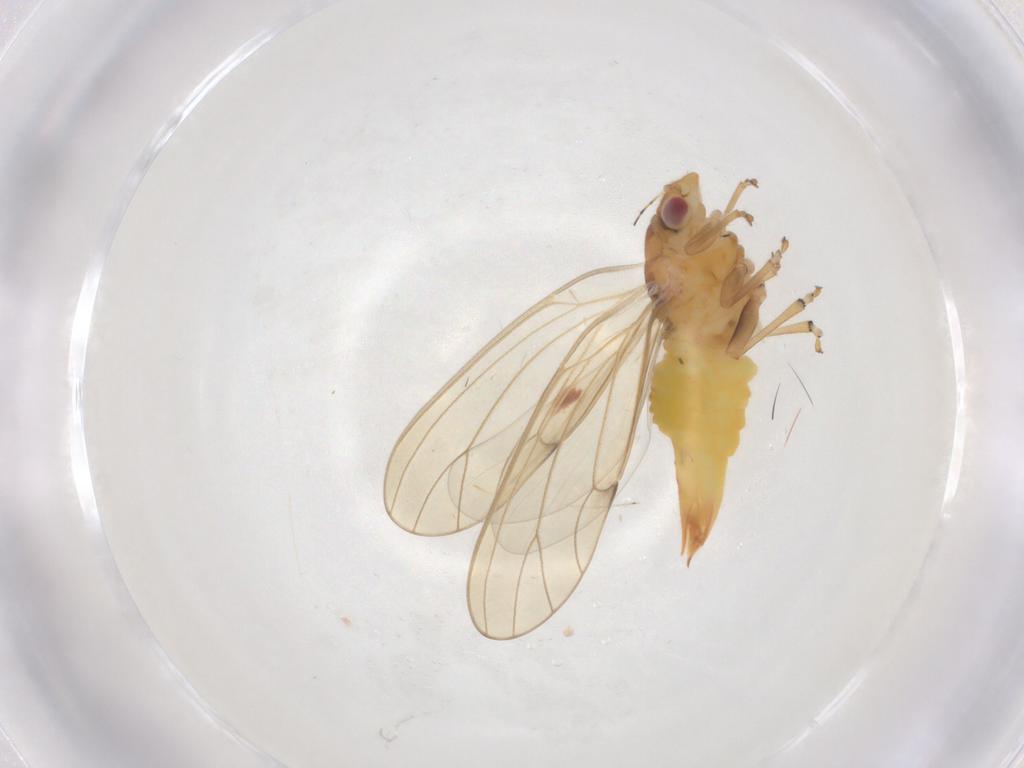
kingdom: Animalia
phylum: Arthropoda
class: Insecta
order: Hemiptera
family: Psylloidea_incertae_sedis
